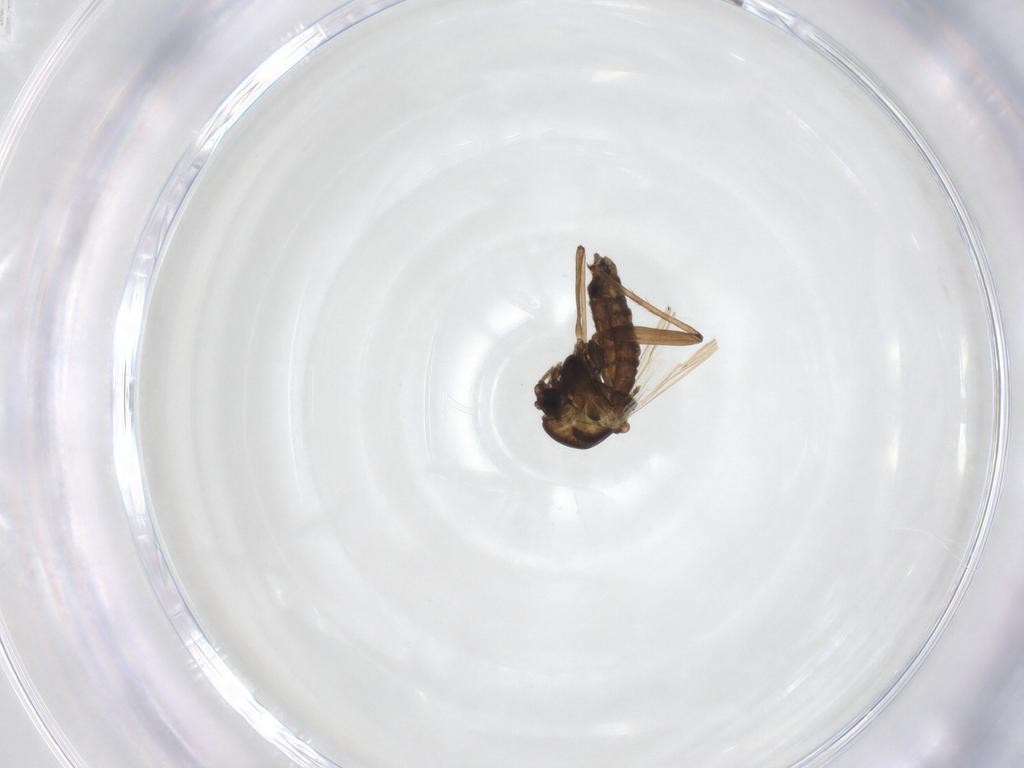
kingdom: Animalia
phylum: Arthropoda
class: Insecta
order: Diptera
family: Chironomidae
